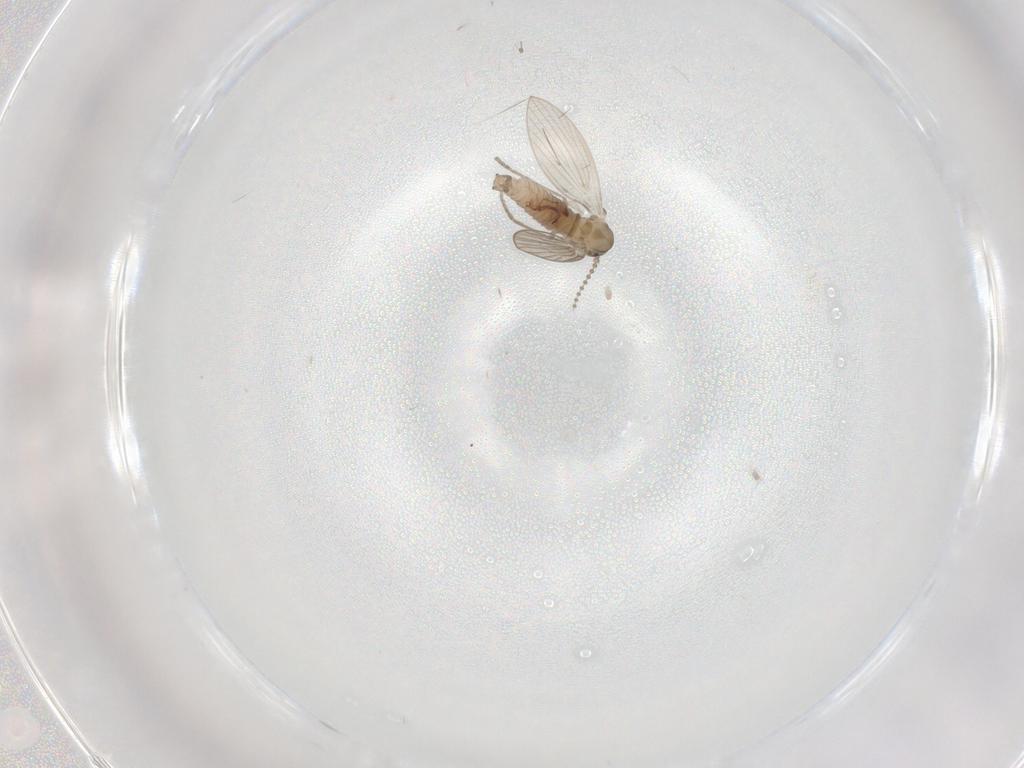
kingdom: Animalia
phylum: Arthropoda
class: Insecta
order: Diptera
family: Psychodidae
